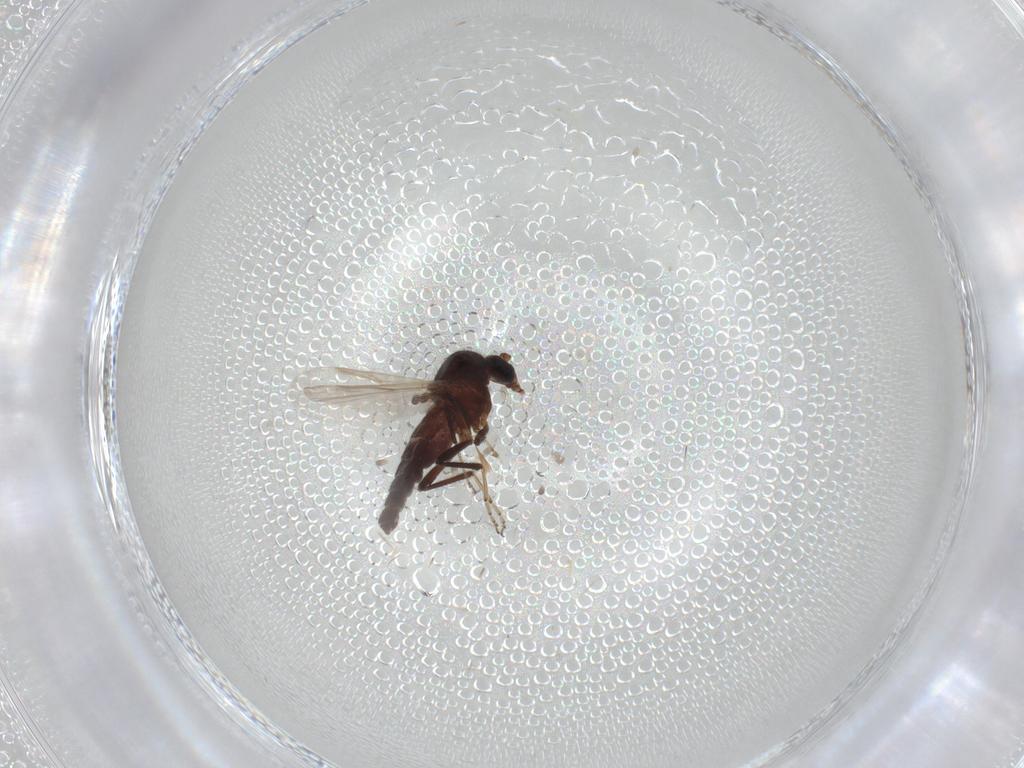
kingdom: Animalia
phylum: Arthropoda
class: Insecta
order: Diptera
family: Ceratopogonidae
